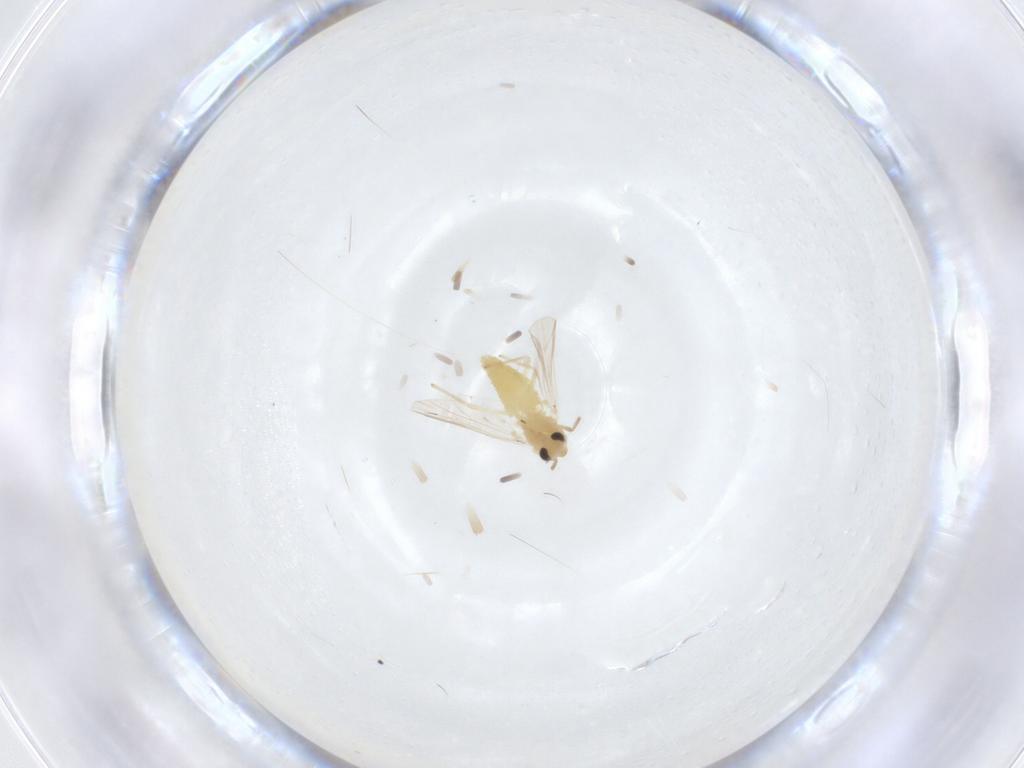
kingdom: Animalia
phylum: Arthropoda
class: Insecta
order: Diptera
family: Chironomidae
